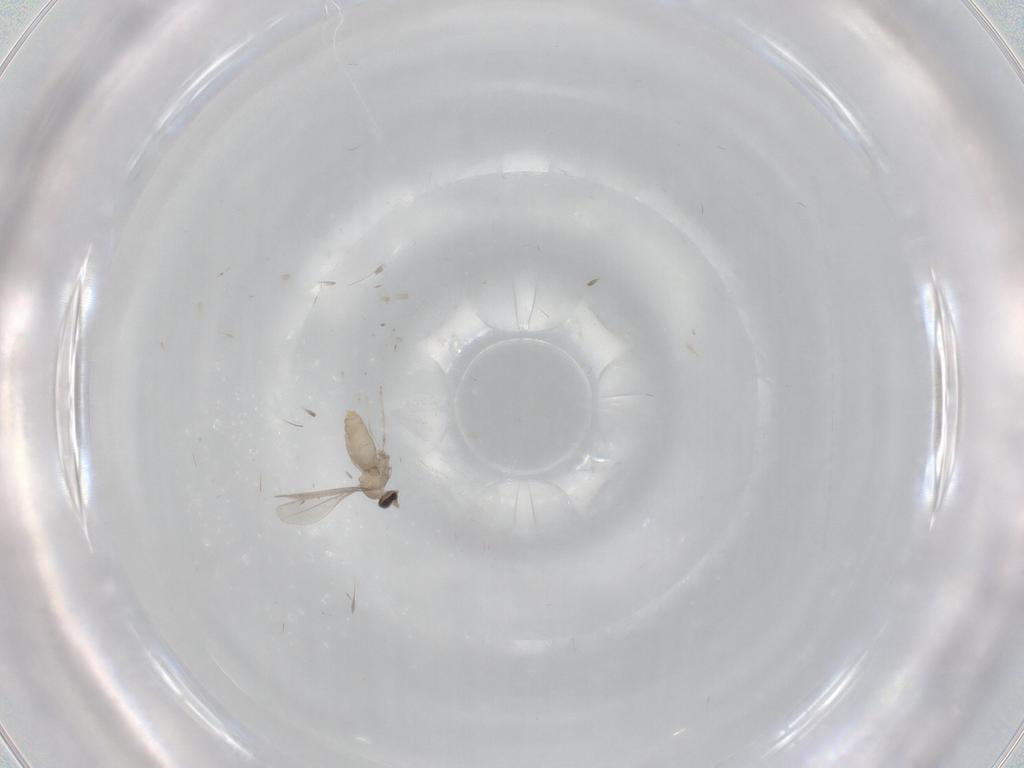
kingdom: Animalia
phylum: Arthropoda
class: Insecta
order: Diptera
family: Cecidomyiidae
